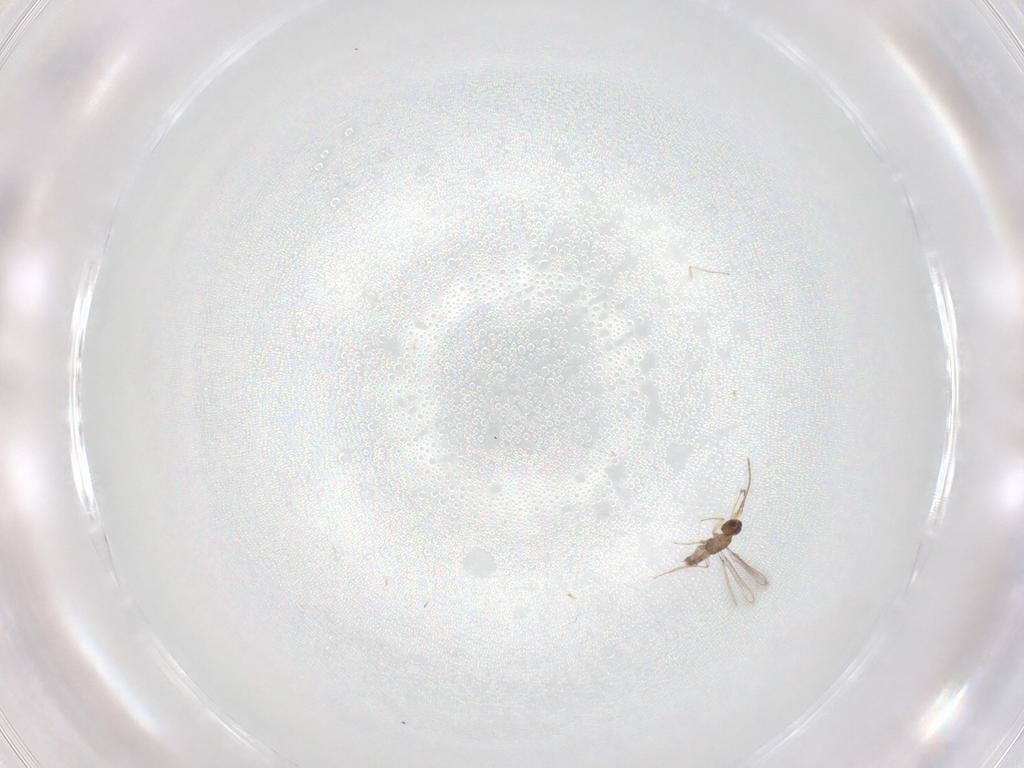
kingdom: Animalia
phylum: Arthropoda
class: Insecta
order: Hymenoptera
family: Mymaridae
